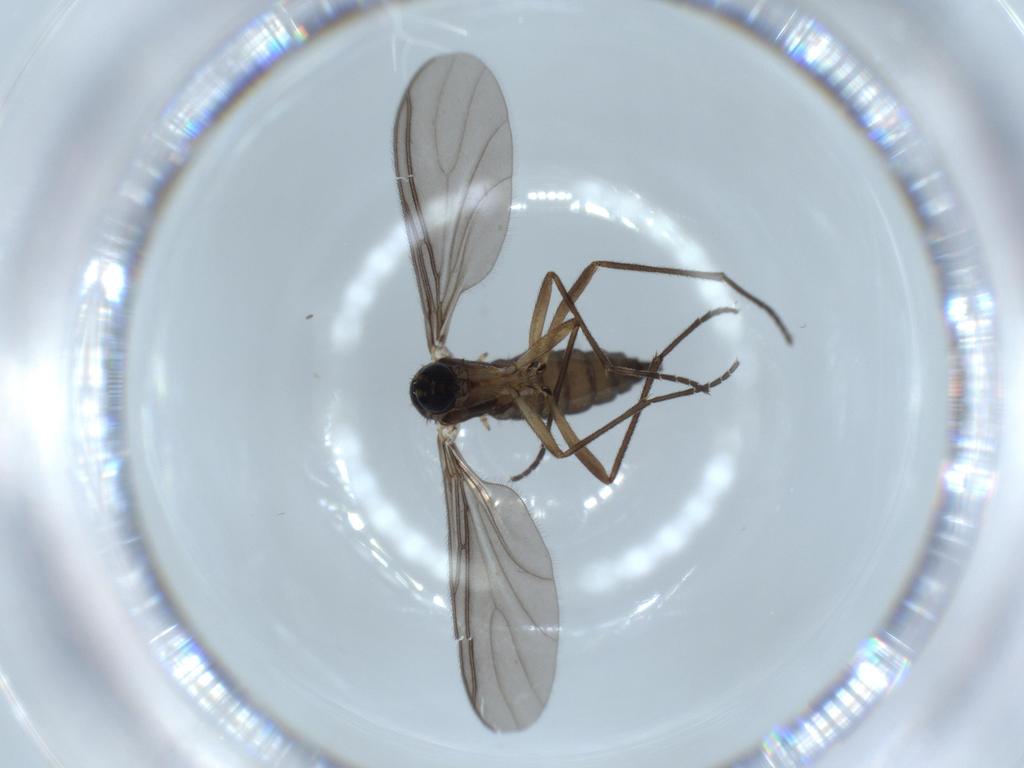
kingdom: Animalia
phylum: Arthropoda
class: Insecta
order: Diptera
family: Sciaridae
